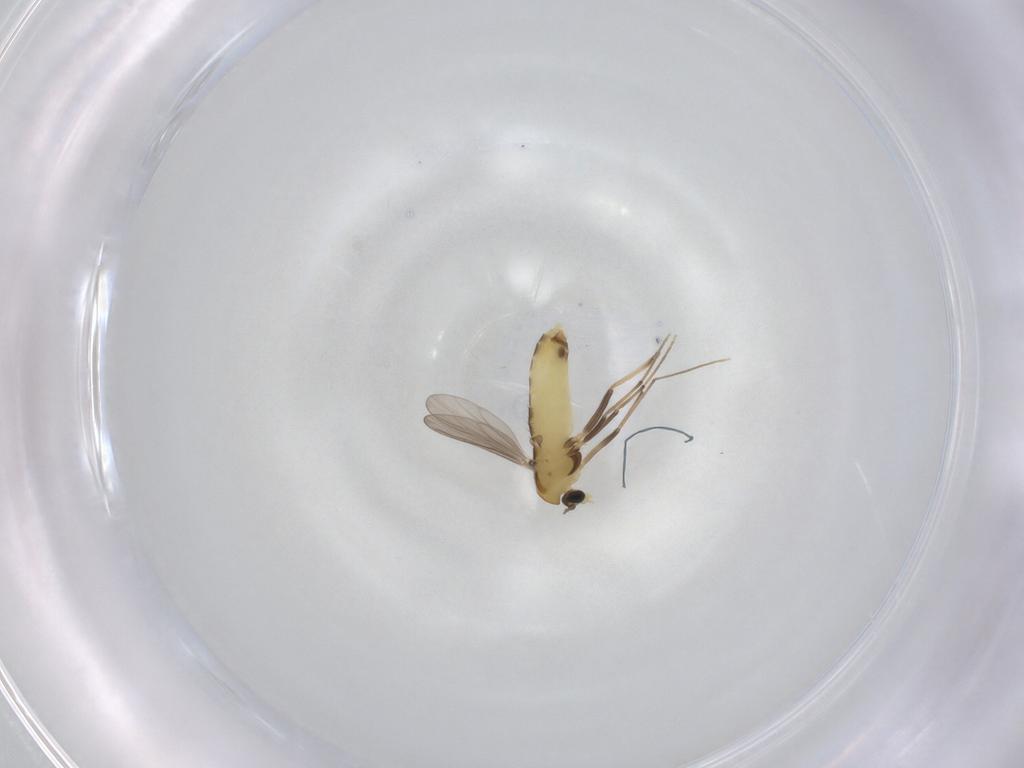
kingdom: Animalia
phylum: Arthropoda
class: Insecta
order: Diptera
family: Chironomidae
